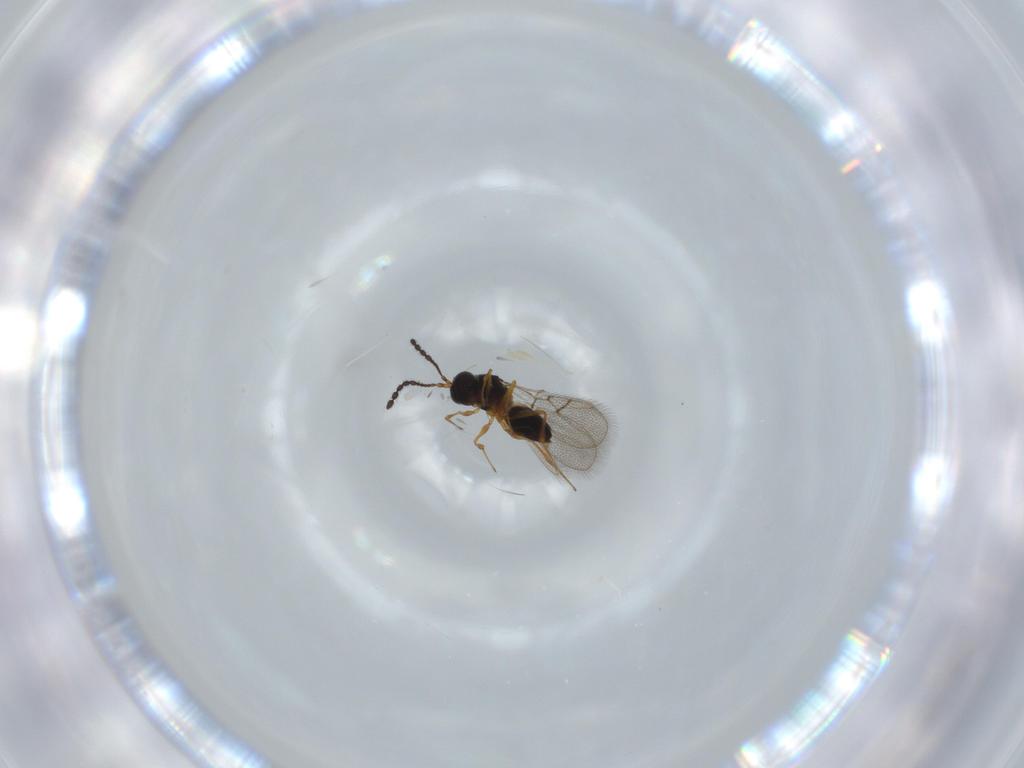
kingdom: Animalia
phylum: Arthropoda
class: Insecta
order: Hymenoptera
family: Figitidae
